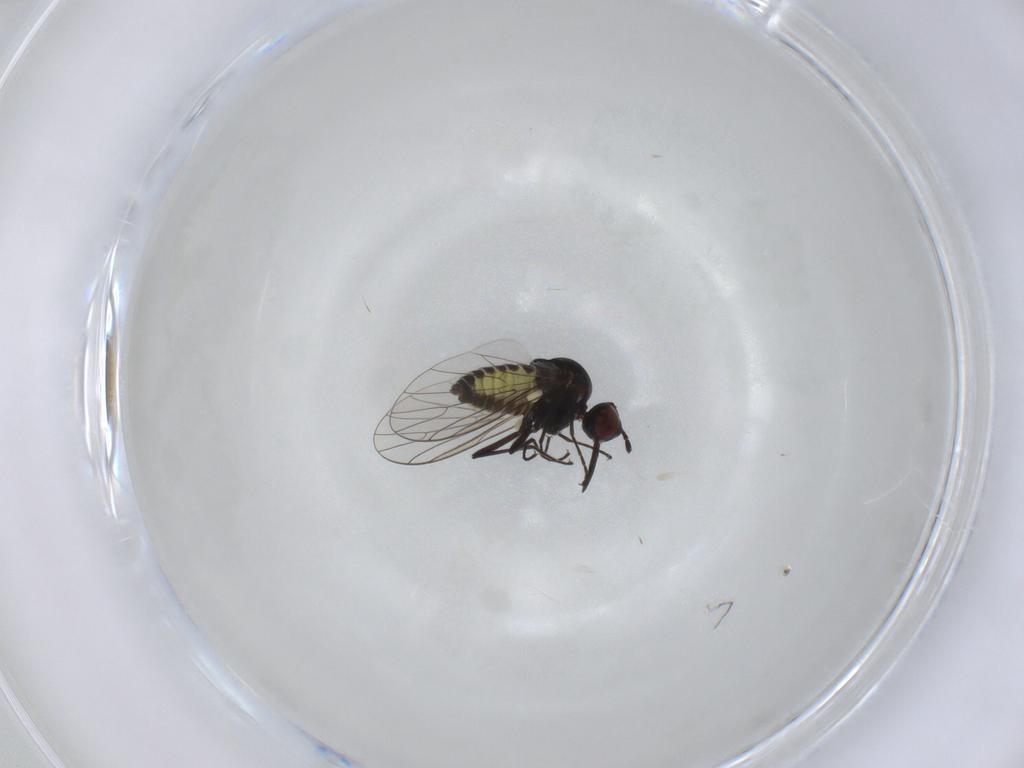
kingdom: Animalia
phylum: Arthropoda
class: Insecta
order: Diptera
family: Bombyliidae
